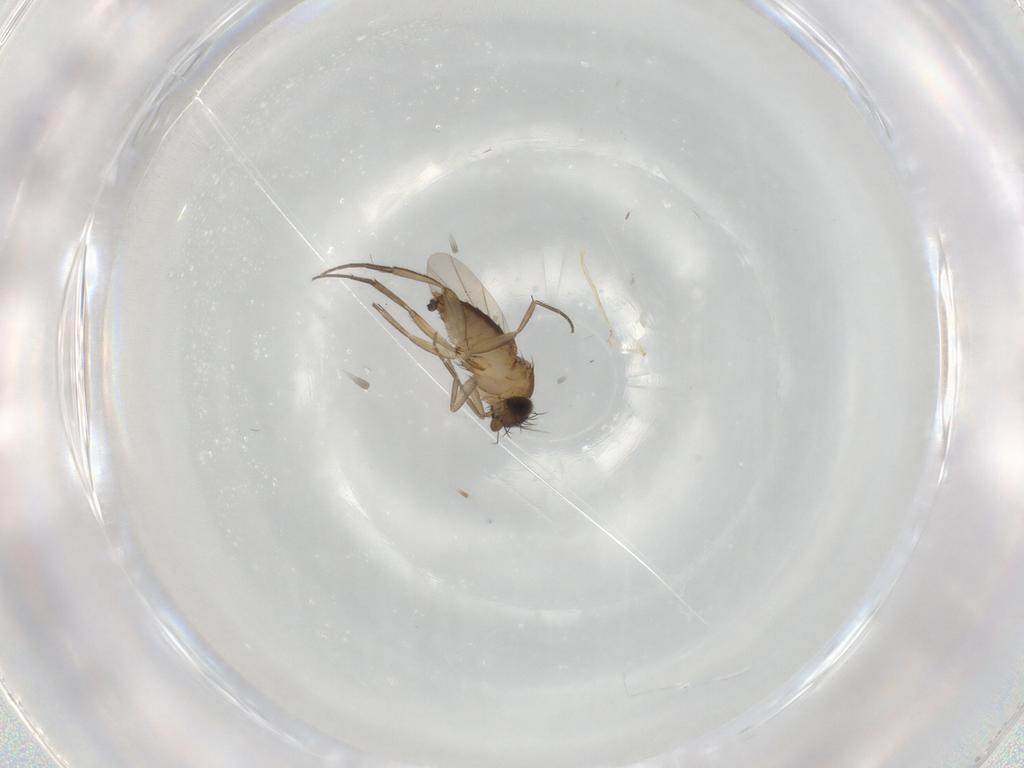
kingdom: Animalia
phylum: Arthropoda
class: Insecta
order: Diptera
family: Phoridae
